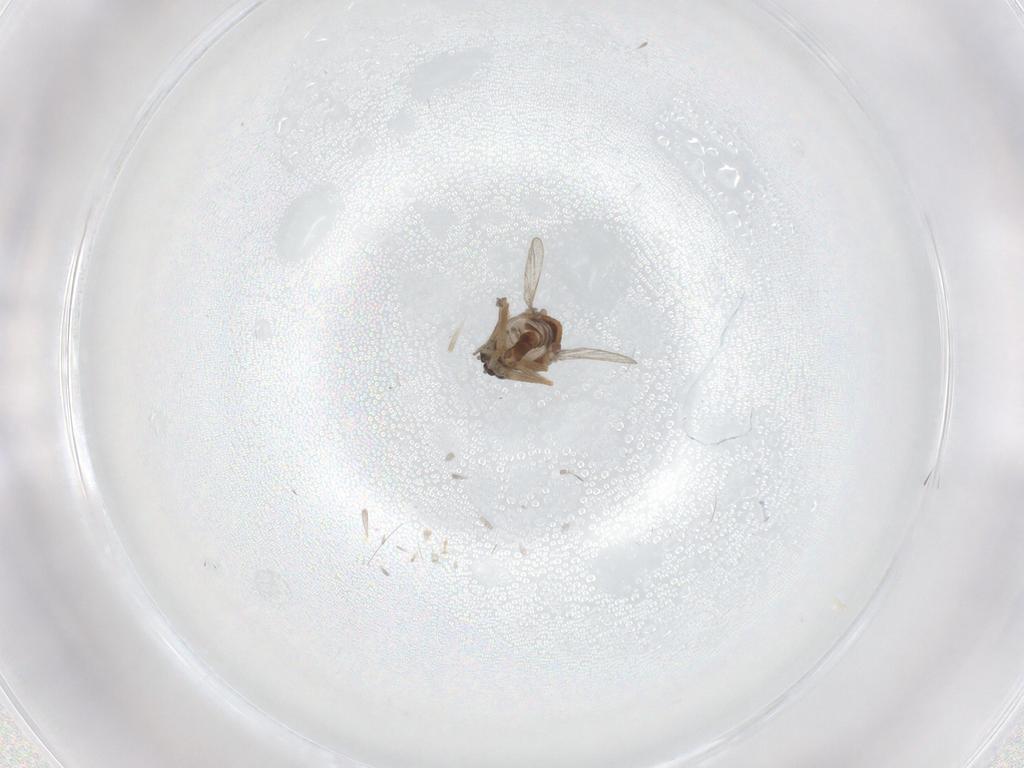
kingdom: Animalia
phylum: Arthropoda
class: Insecta
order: Diptera
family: Ceratopogonidae
